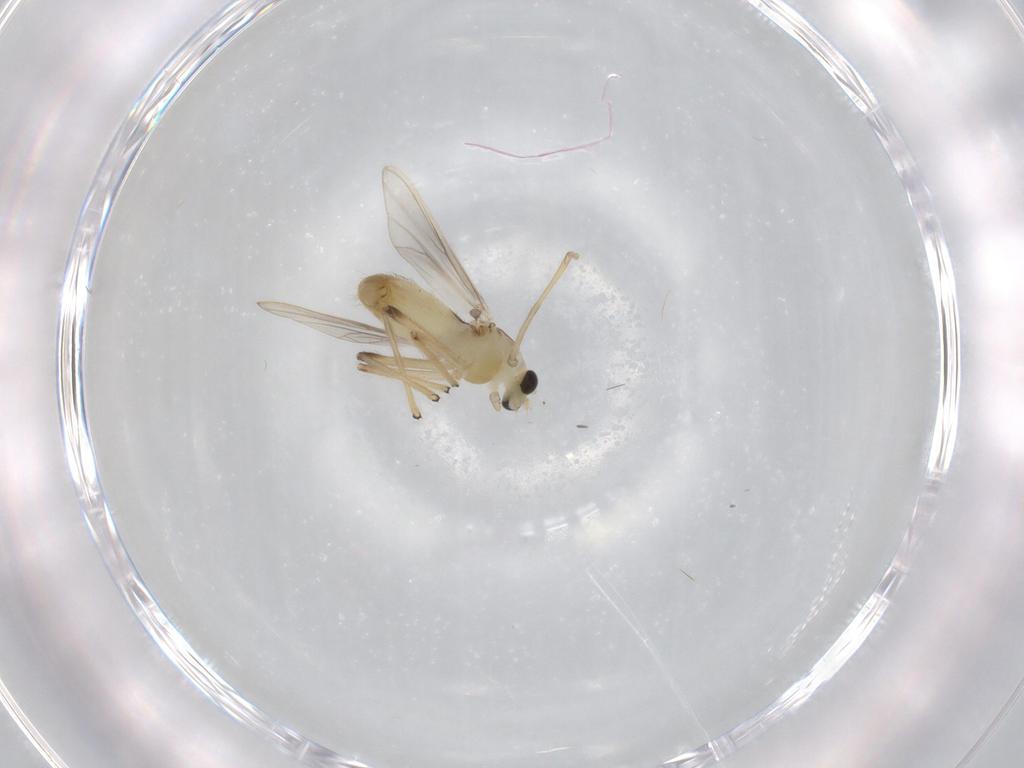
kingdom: Animalia
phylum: Arthropoda
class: Insecta
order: Diptera
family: Chironomidae
